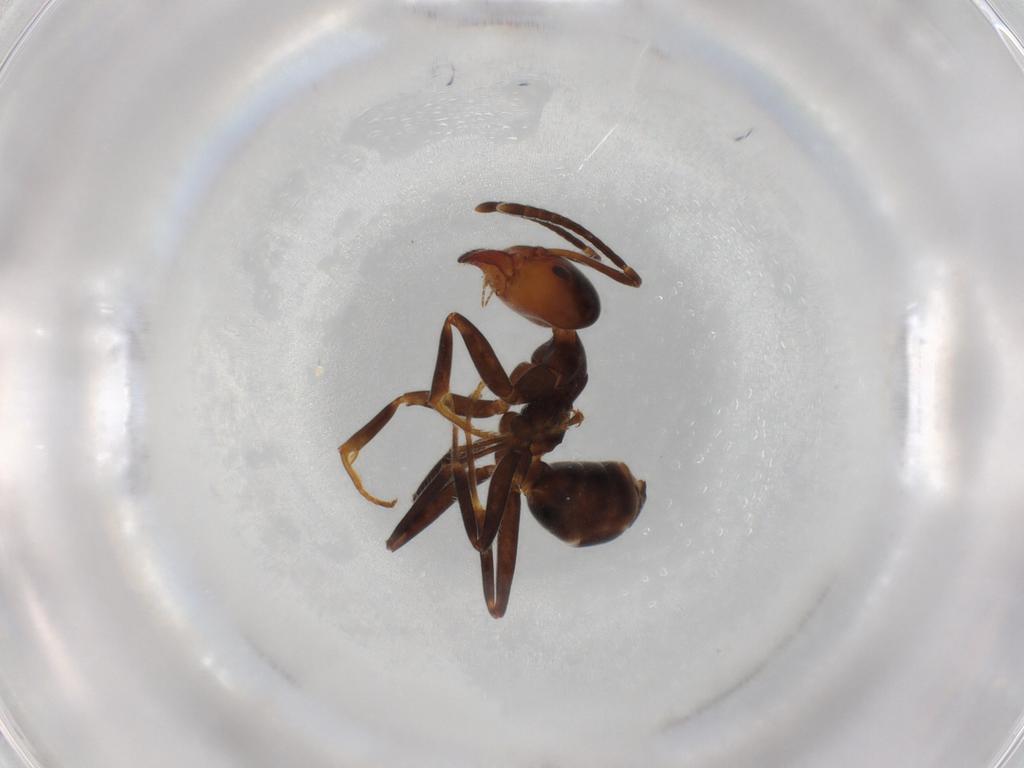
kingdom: Animalia
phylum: Arthropoda
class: Insecta
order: Hymenoptera
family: Formicidae
